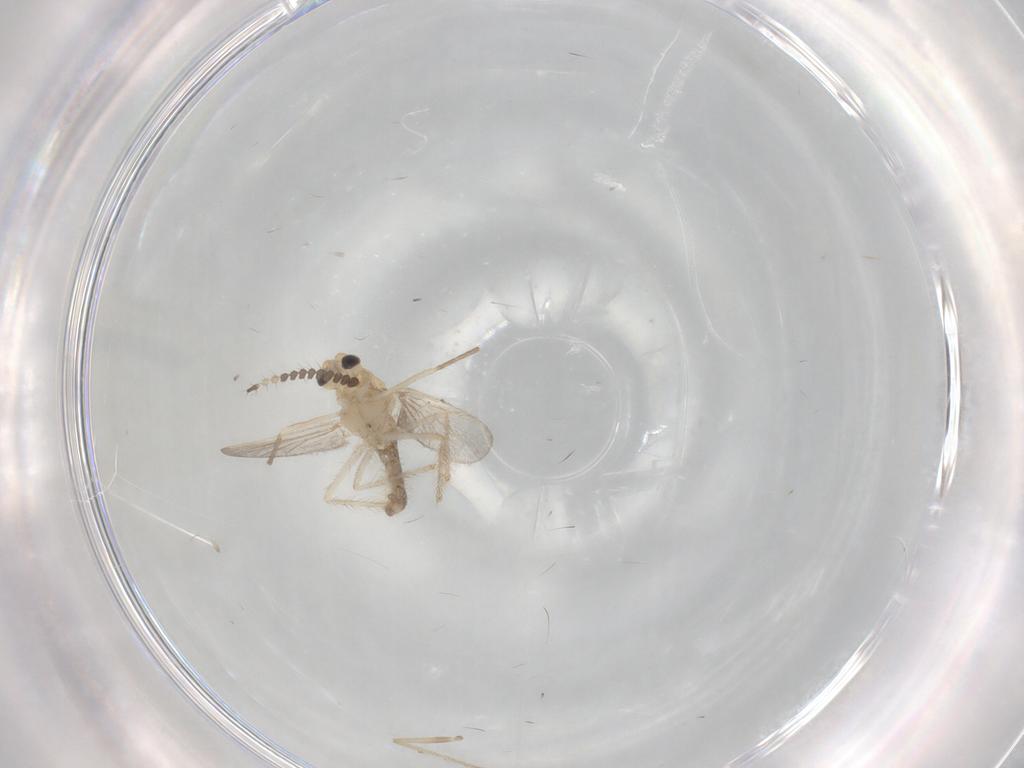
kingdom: Animalia
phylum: Arthropoda
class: Insecta
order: Diptera
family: Chironomidae
